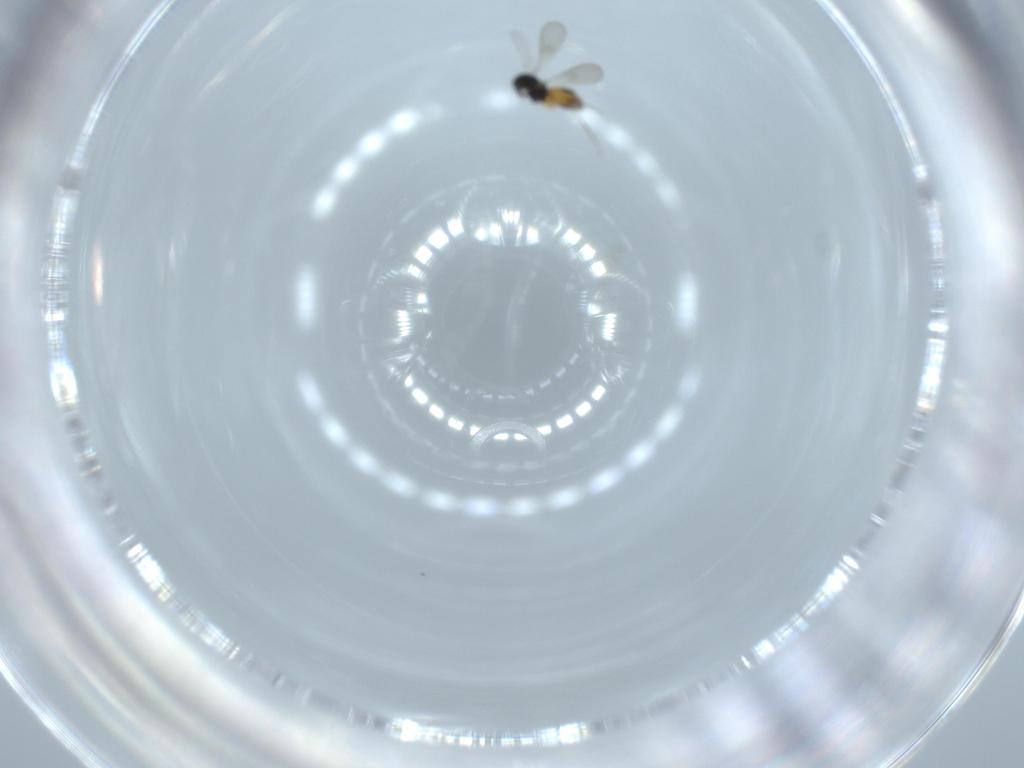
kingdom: Animalia
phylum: Arthropoda
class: Insecta
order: Hymenoptera
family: Scelionidae
